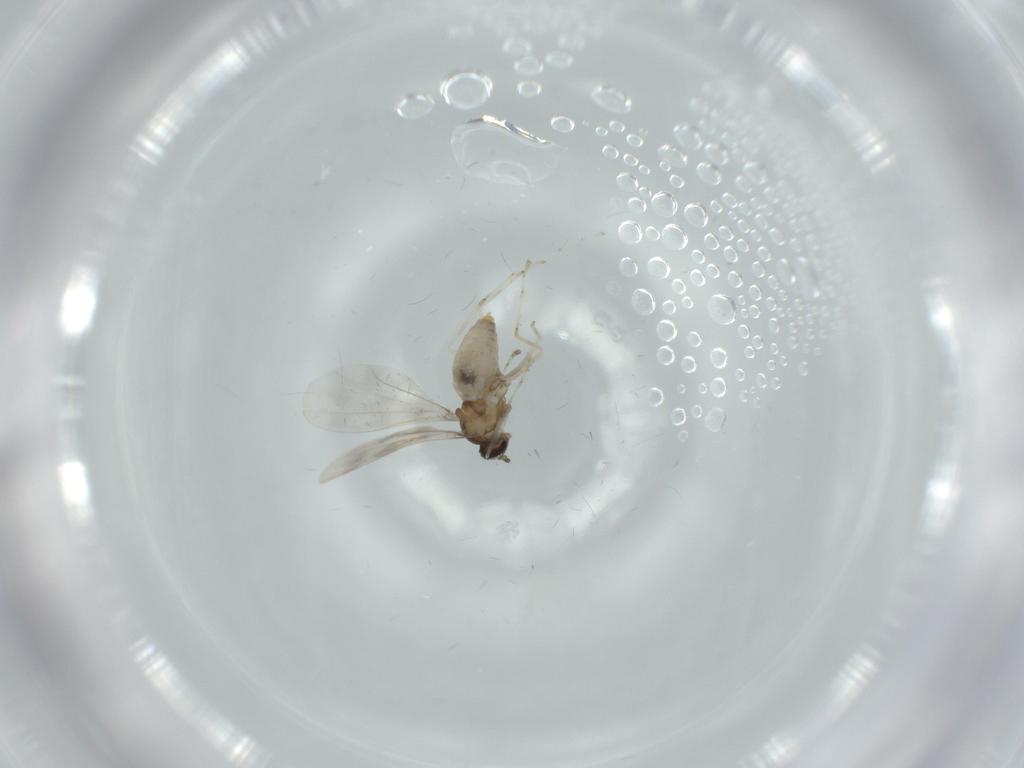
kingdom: Animalia
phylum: Arthropoda
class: Insecta
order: Diptera
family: Cecidomyiidae
